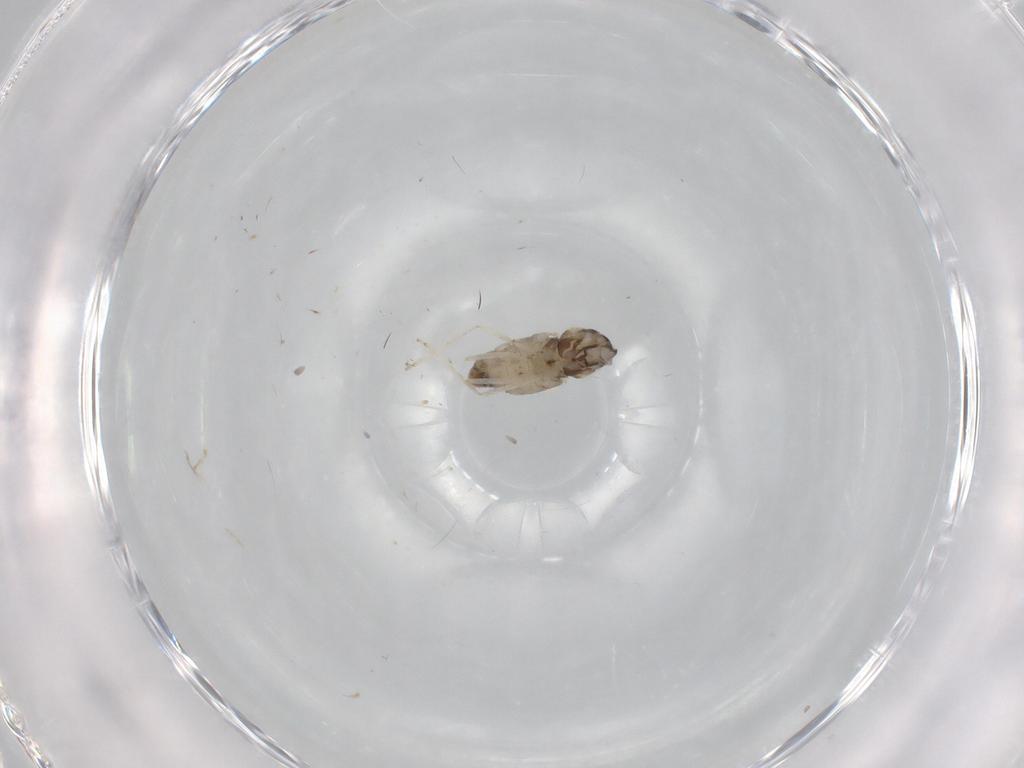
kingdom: Animalia
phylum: Arthropoda
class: Insecta
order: Diptera
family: Cecidomyiidae
